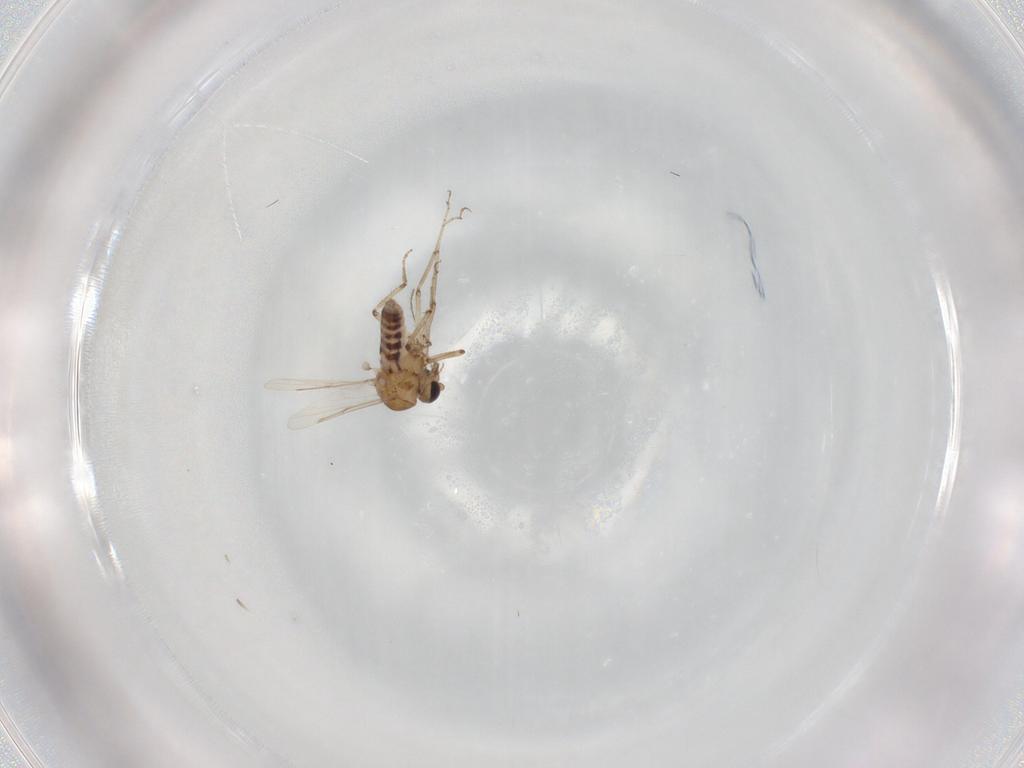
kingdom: Animalia
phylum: Arthropoda
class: Insecta
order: Diptera
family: Ceratopogonidae
